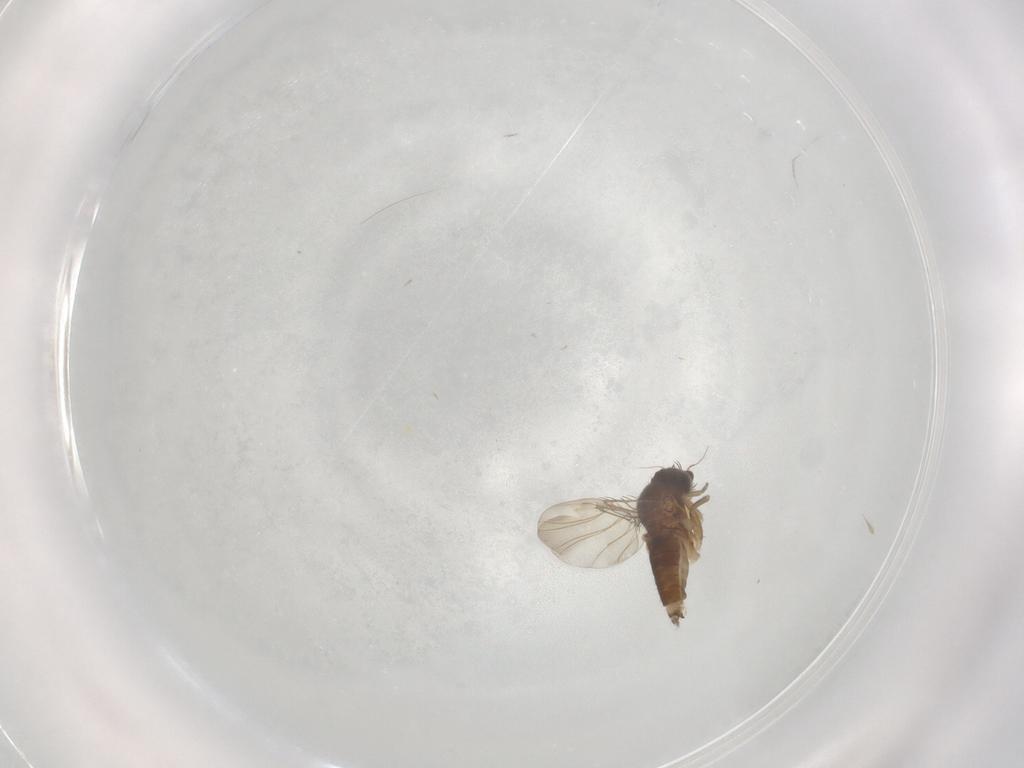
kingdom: Animalia
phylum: Arthropoda
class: Insecta
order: Diptera
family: Phoridae
